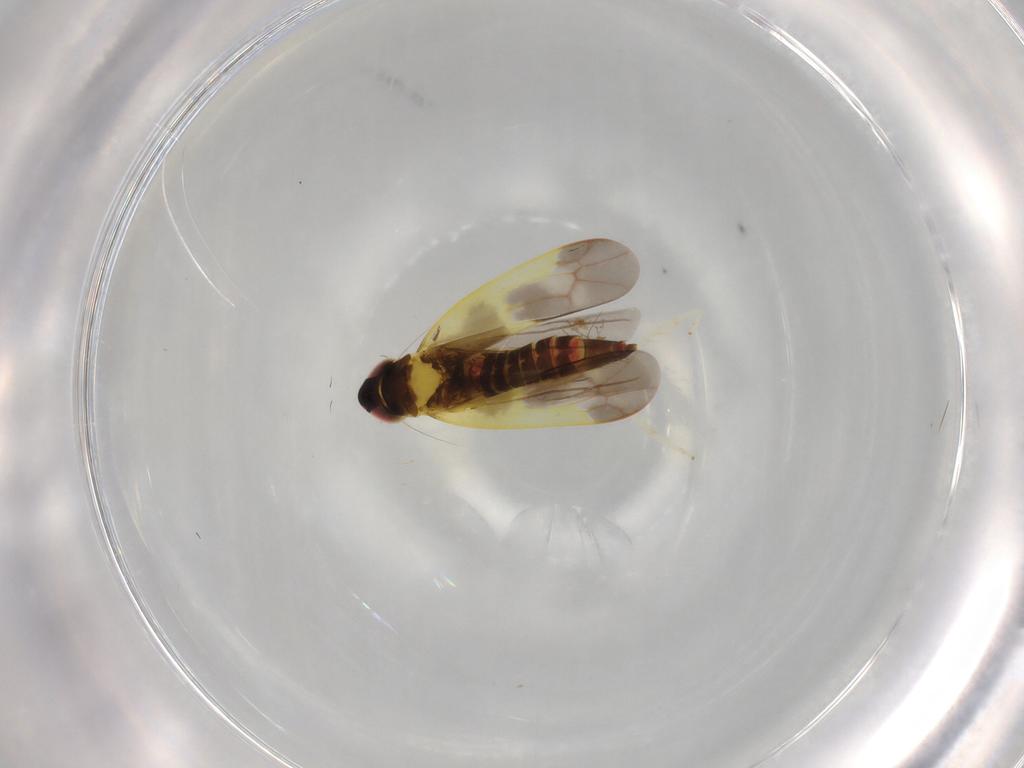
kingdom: Animalia
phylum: Arthropoda
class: Insecta
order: Hemiptera
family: Cicadellidae
